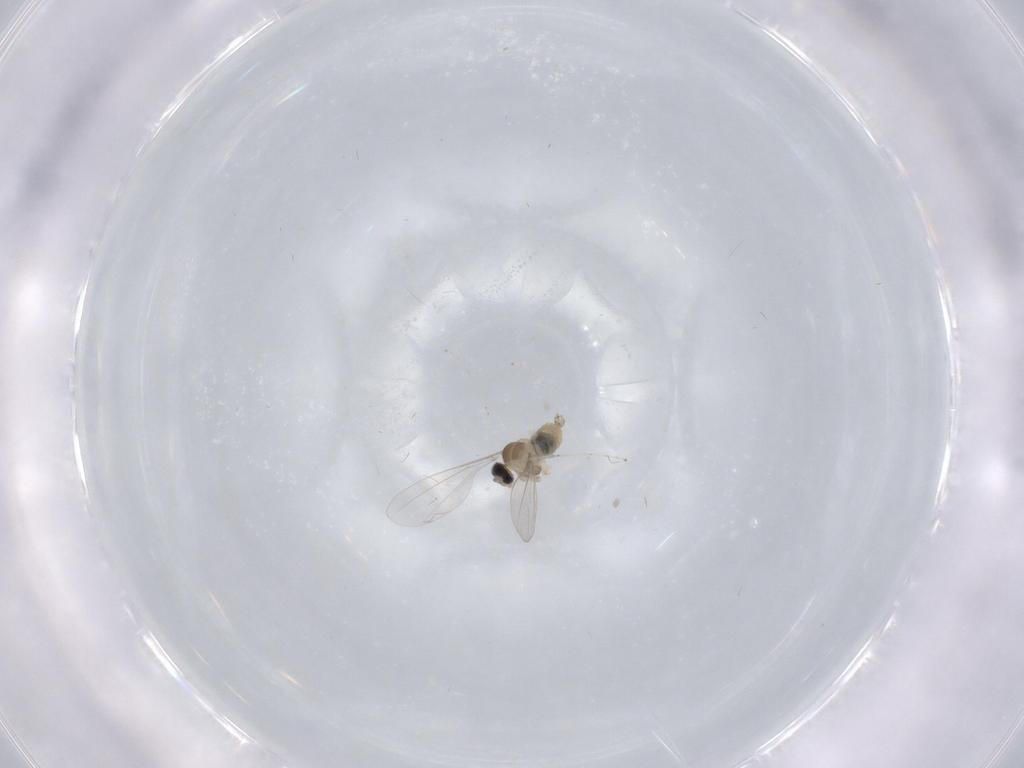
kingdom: Animalia
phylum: Arthropoda
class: Insecta
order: Diptera
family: Cecidomyiidae
